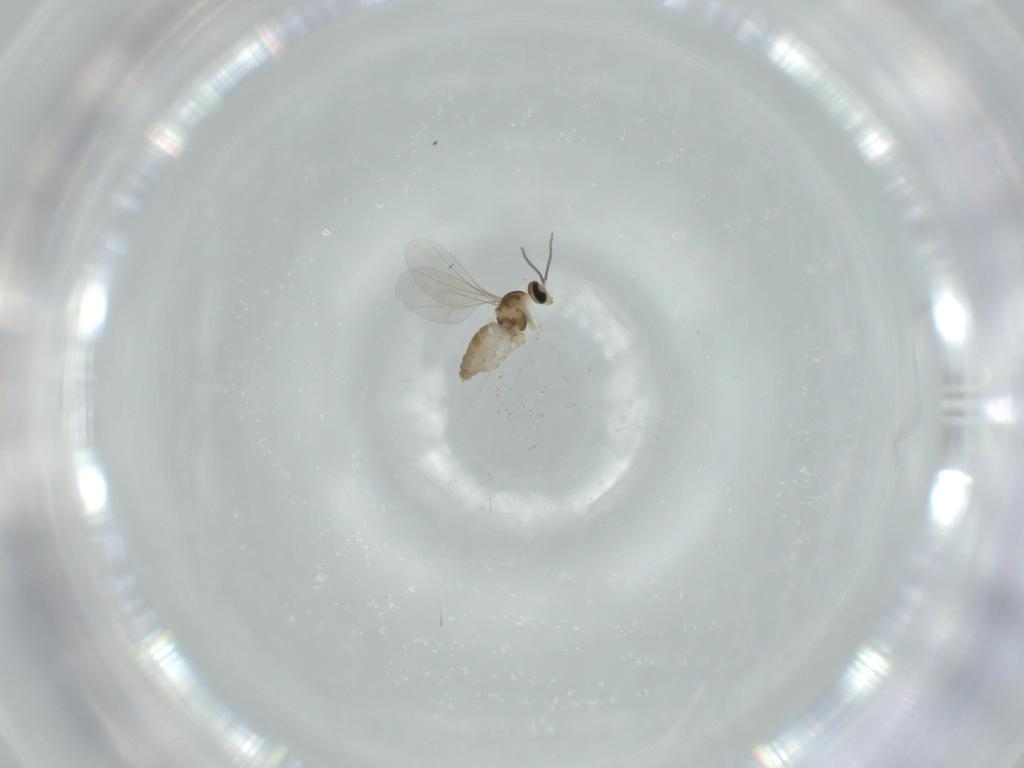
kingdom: Animalia
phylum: Arthropoda
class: Insecta
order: Diptera
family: Cecidomyiidae
